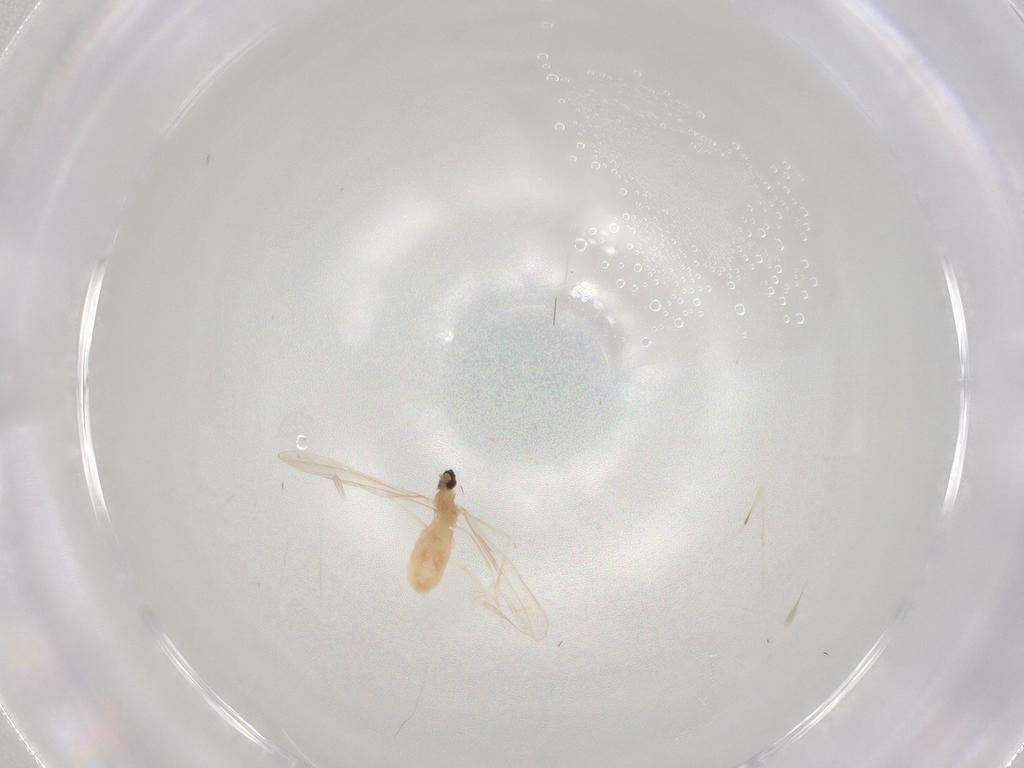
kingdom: Animalia
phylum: Arthropoda
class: Insecta
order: Diptera
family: Cecidomyiidae
